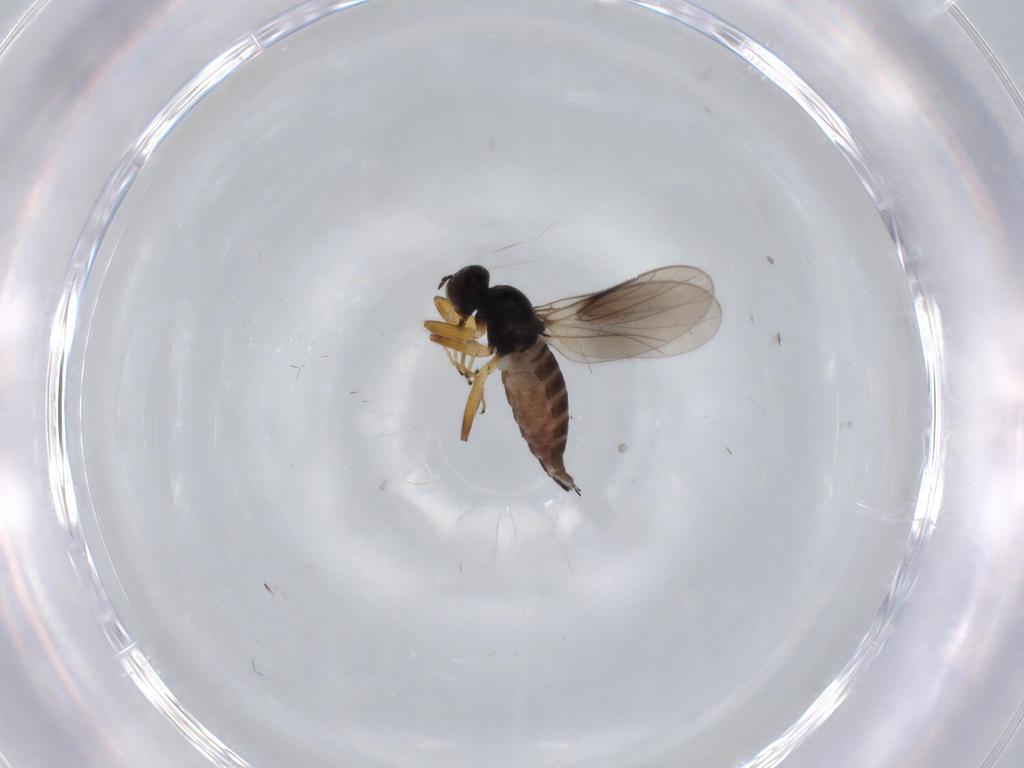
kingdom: Animalia
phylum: Arthropoda
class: Insecta
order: Diptera
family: Hybotidae
